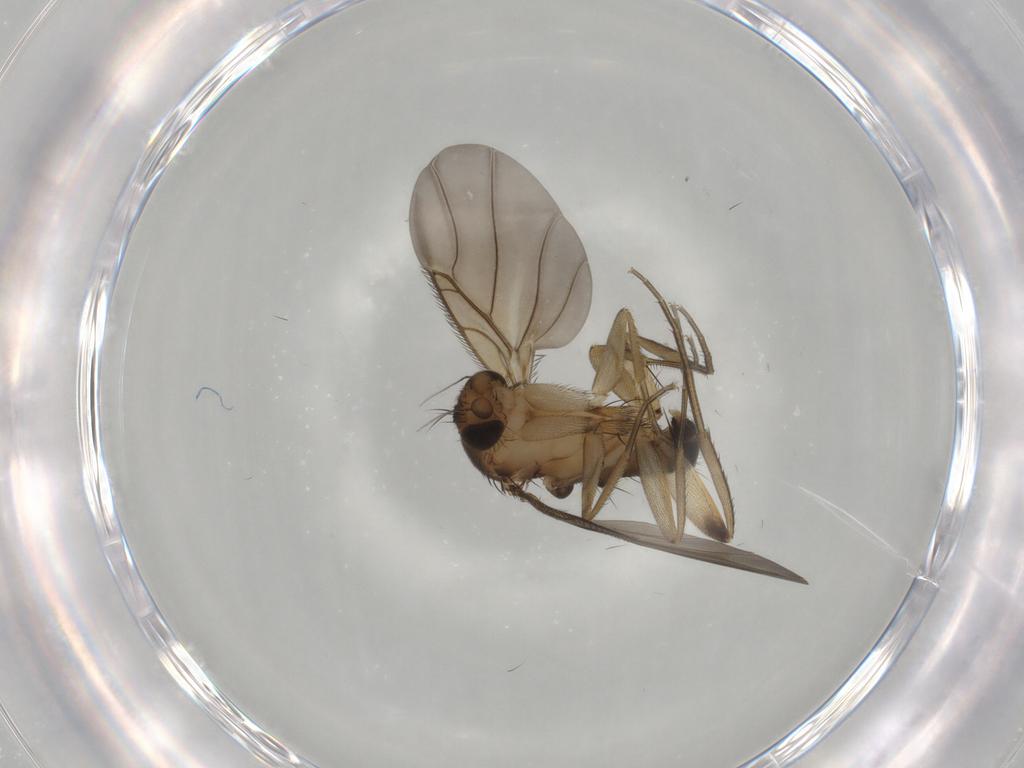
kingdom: Animalia
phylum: Arthropoda
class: Insecta
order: Diptera
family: Phoridae
